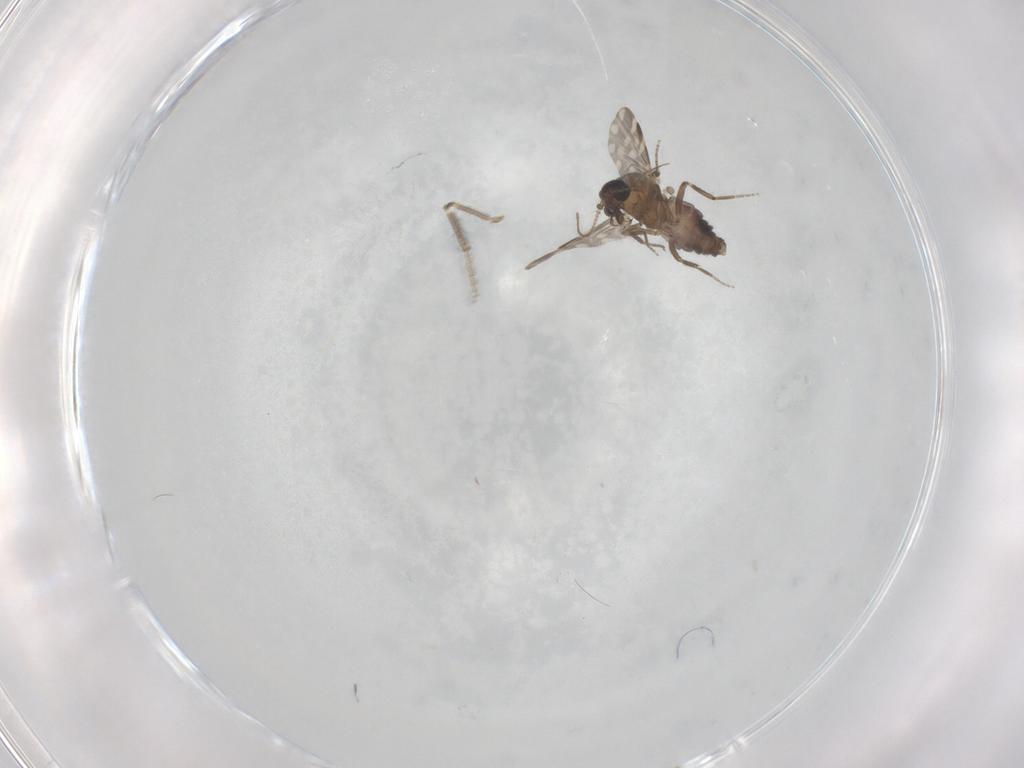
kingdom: Animalia
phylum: Arthropoda
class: Insecta
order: Diptera
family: Ceratopogonidae
